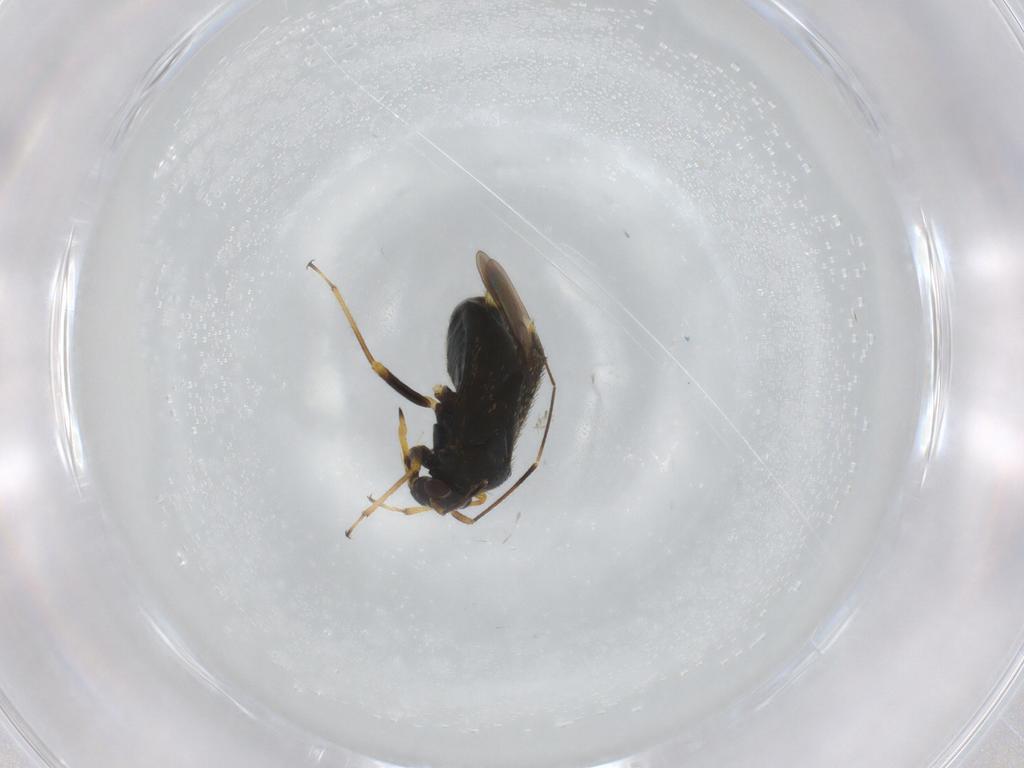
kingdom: Animalia
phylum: Arthropoda
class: Insecta
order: Hemiptera
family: Miridae
